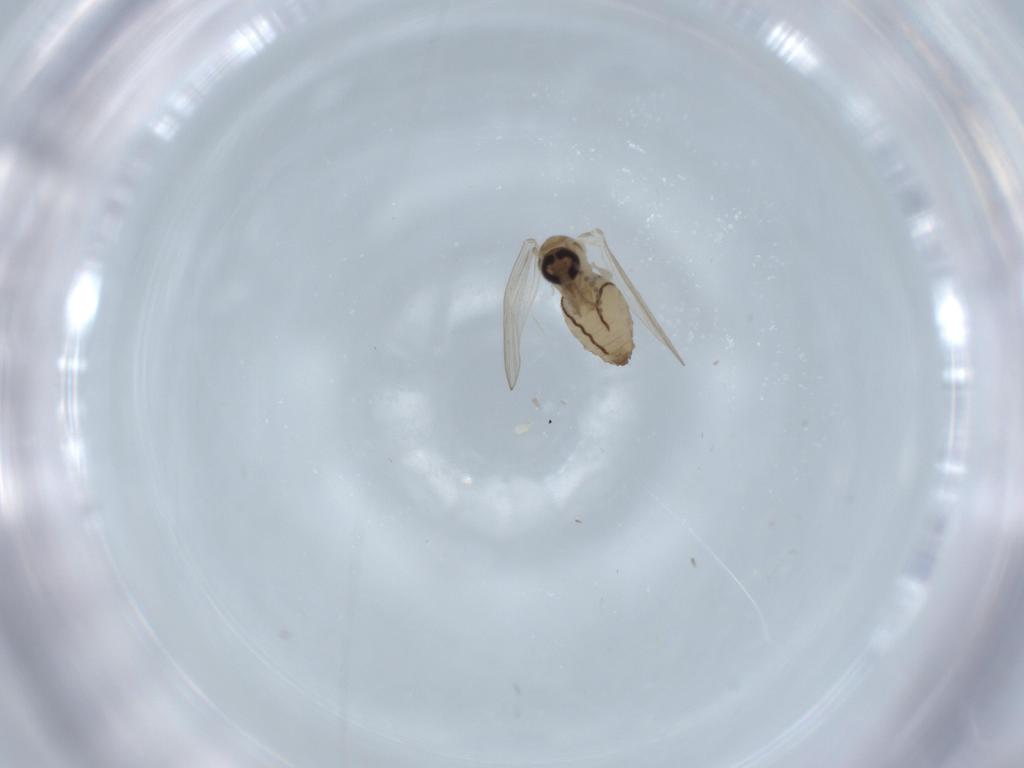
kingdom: Animalia
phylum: Arthropoda
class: Insecta
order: Diptera
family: Psychodidae
